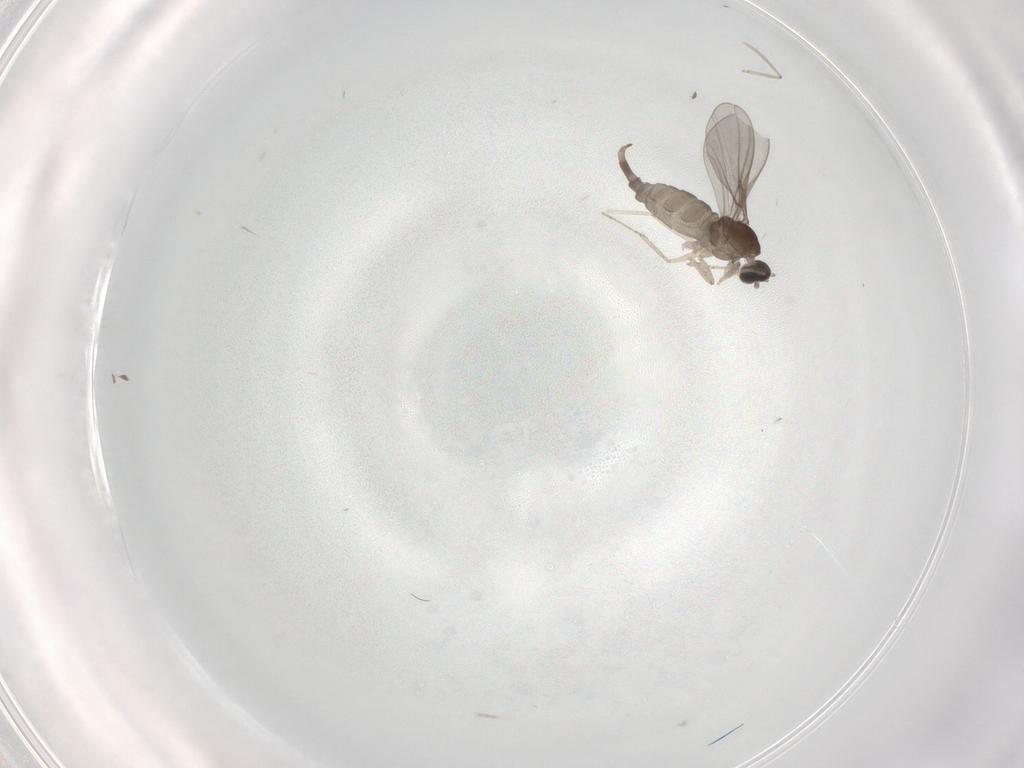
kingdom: Animalia
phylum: Arthropoda
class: Insecta
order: Diptera
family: Cecidomyiidae
